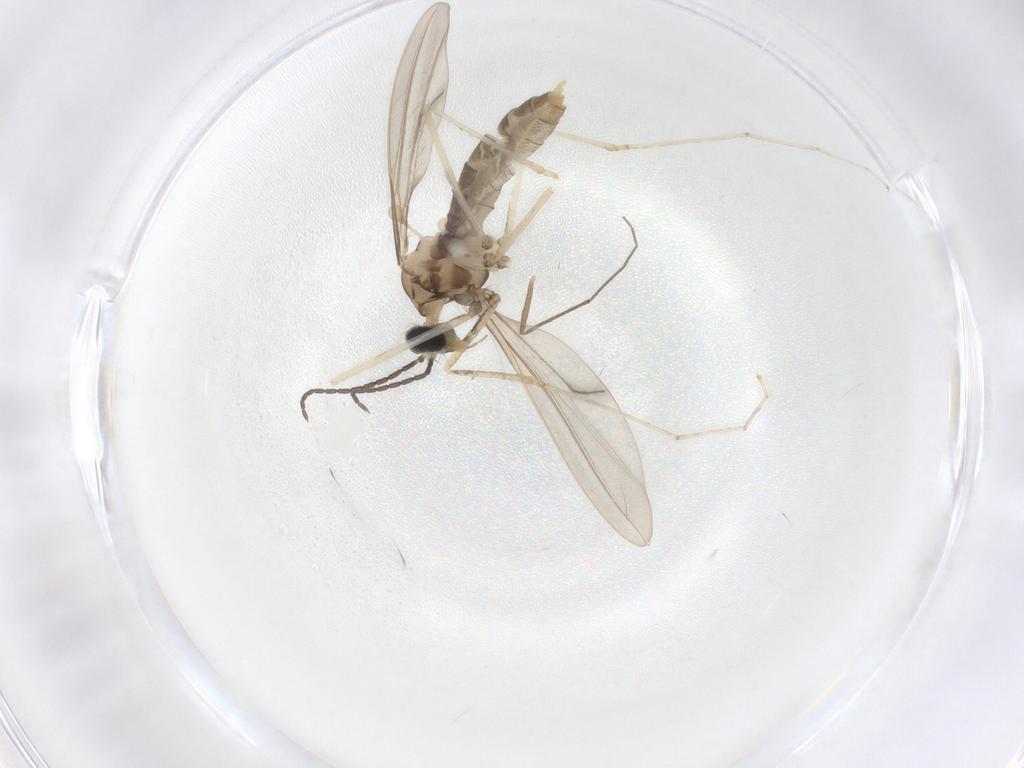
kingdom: Animalia
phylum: Arthropoda
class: Insecta
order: Diptera
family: Cecidomyiidae
